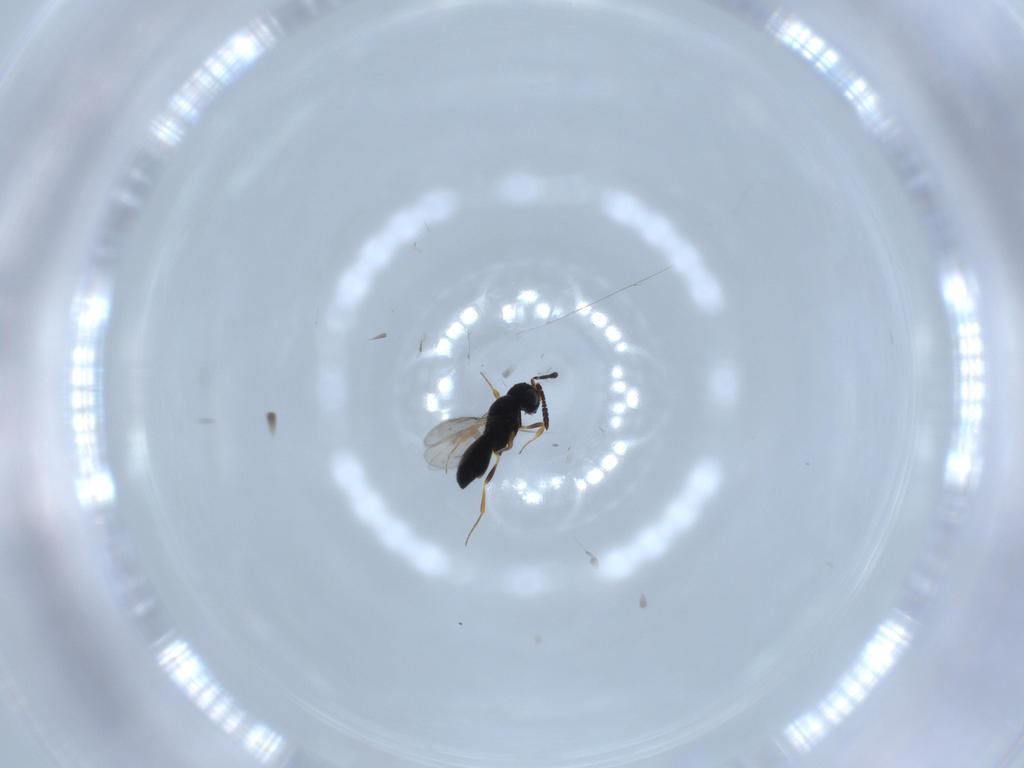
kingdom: Animalia
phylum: Arthropoda
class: Insecta
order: Hymenoptera
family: Scelionidae
